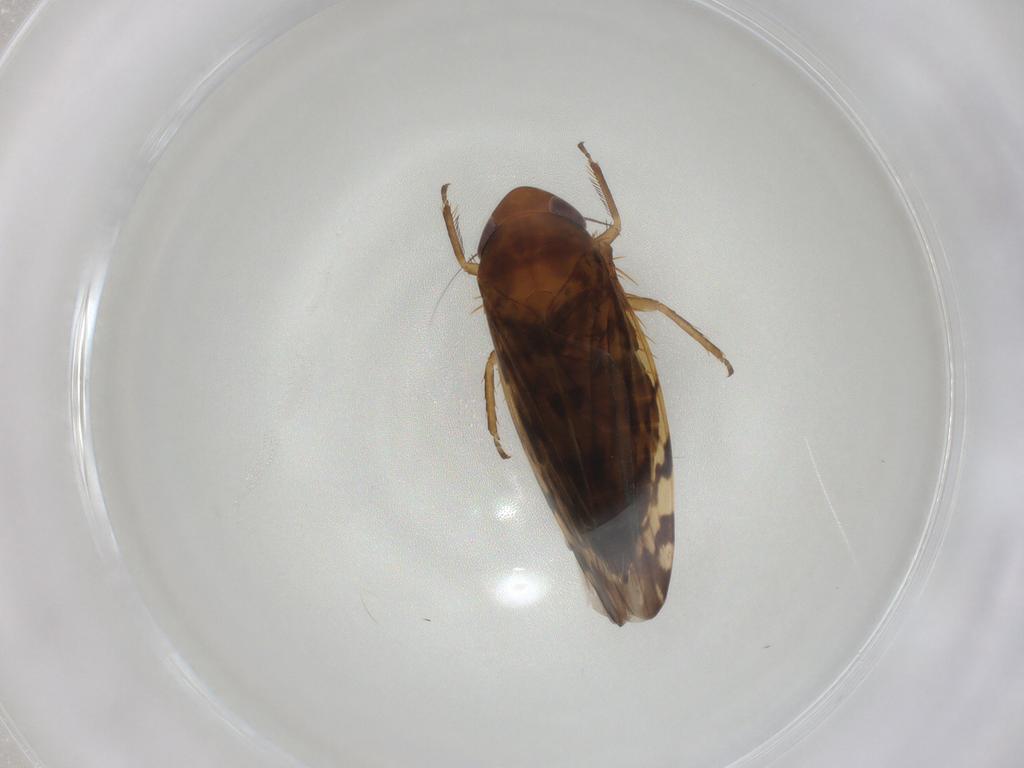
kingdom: Animalia
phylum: Arthropoda
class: Insecta
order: Hemiptera
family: Cicadellidae
